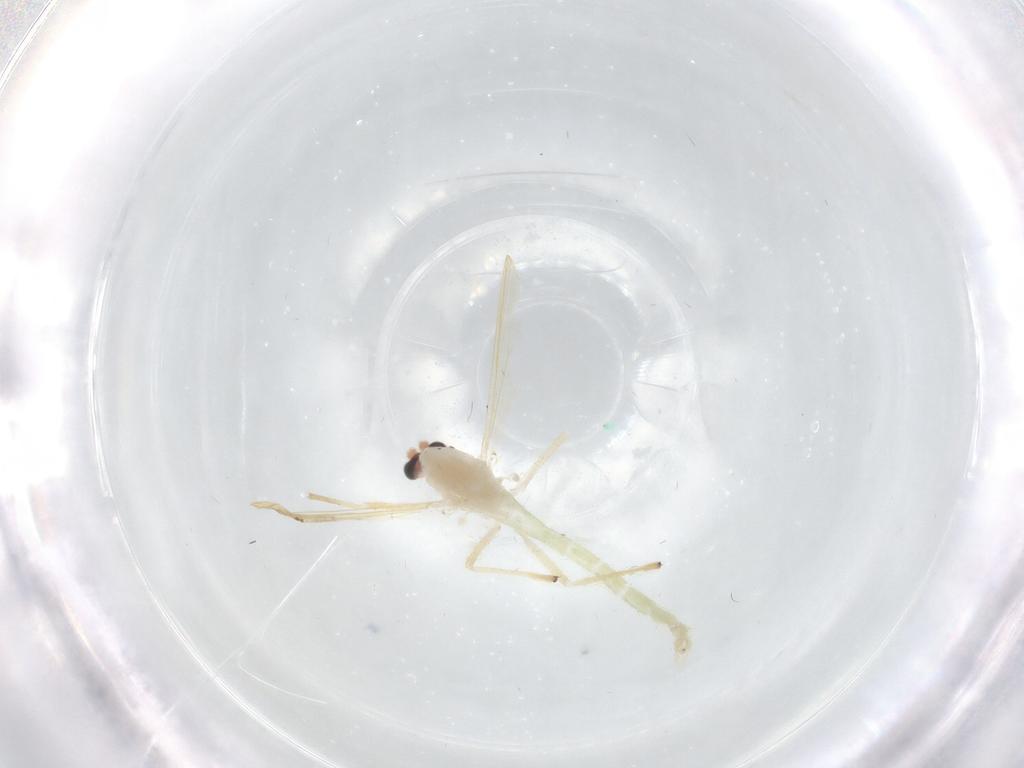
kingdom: Animalia
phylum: Arthropoda
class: Insecta
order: Diptera
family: Chironomidae
